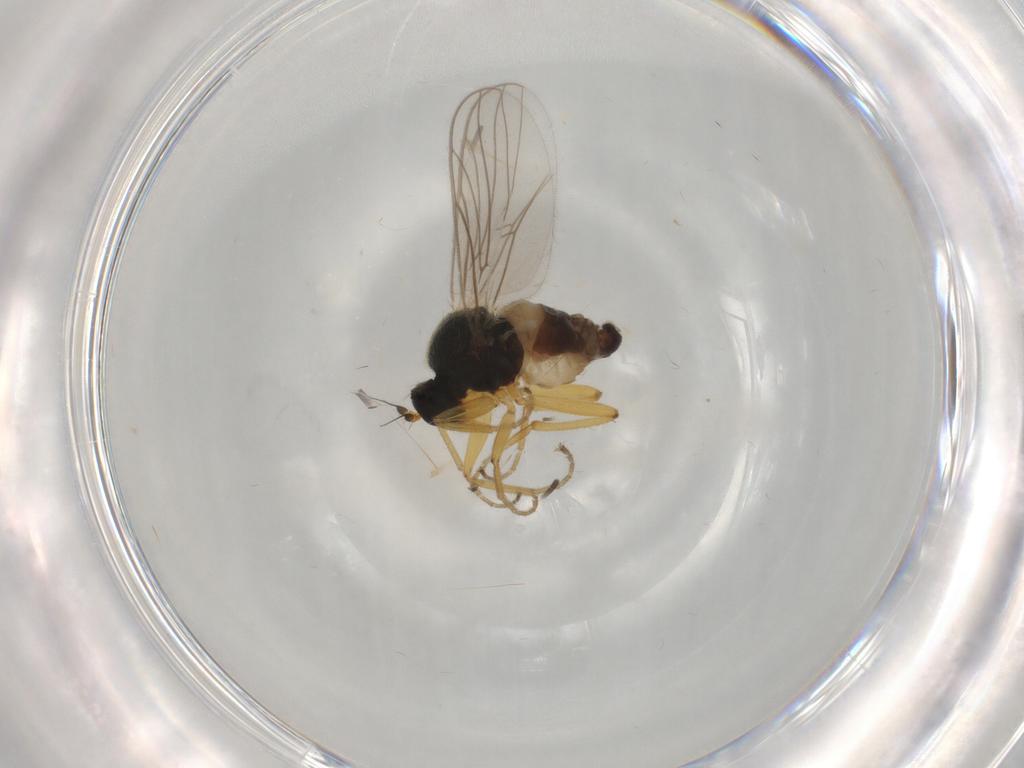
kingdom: Animalia
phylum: Arthropoda
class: Insecta
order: Diptera
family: Chironomidae
